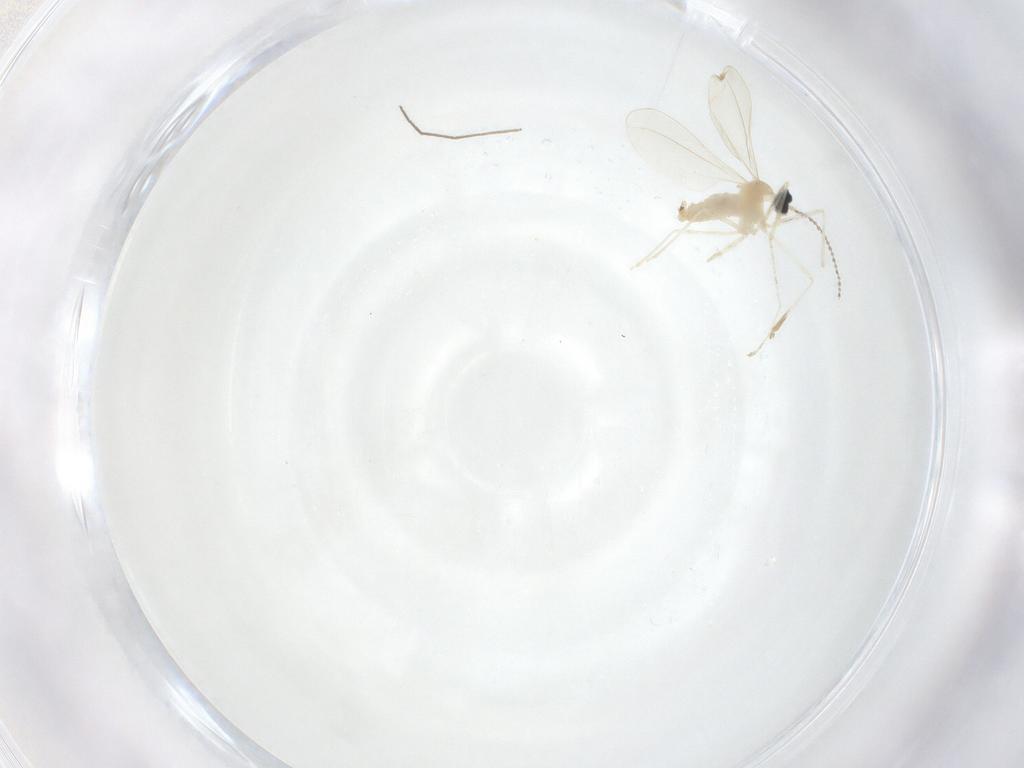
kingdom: Animalia
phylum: Arthropoda
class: Insecta
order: Diptera
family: Cecidomyiidae
